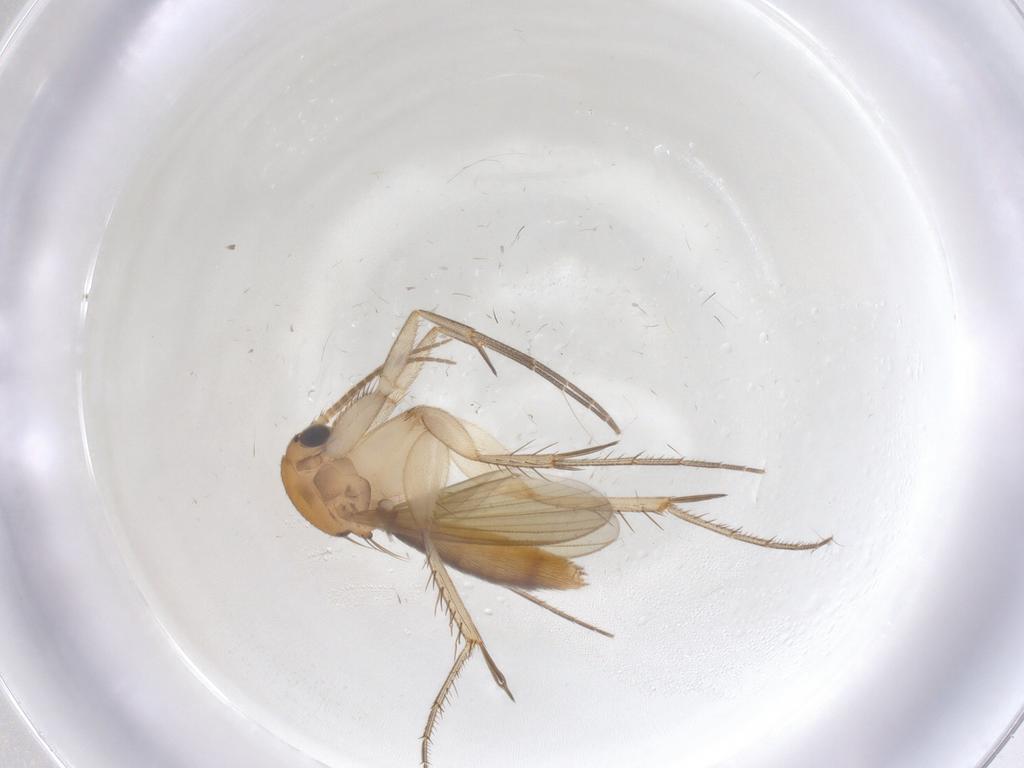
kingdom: Animalia
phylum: Arthropoda
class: Insecta
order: Diptera
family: Mycetophilidae
